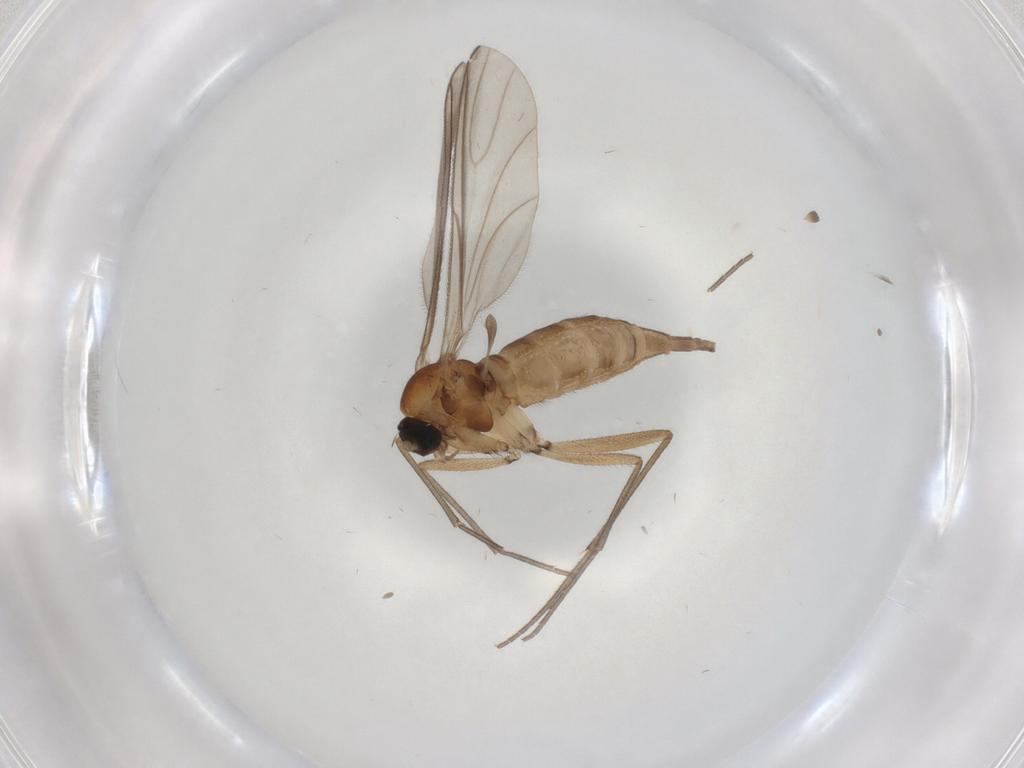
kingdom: Animalia
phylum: Arthropoda
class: Insecta
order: Diptera
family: Sciaridae
